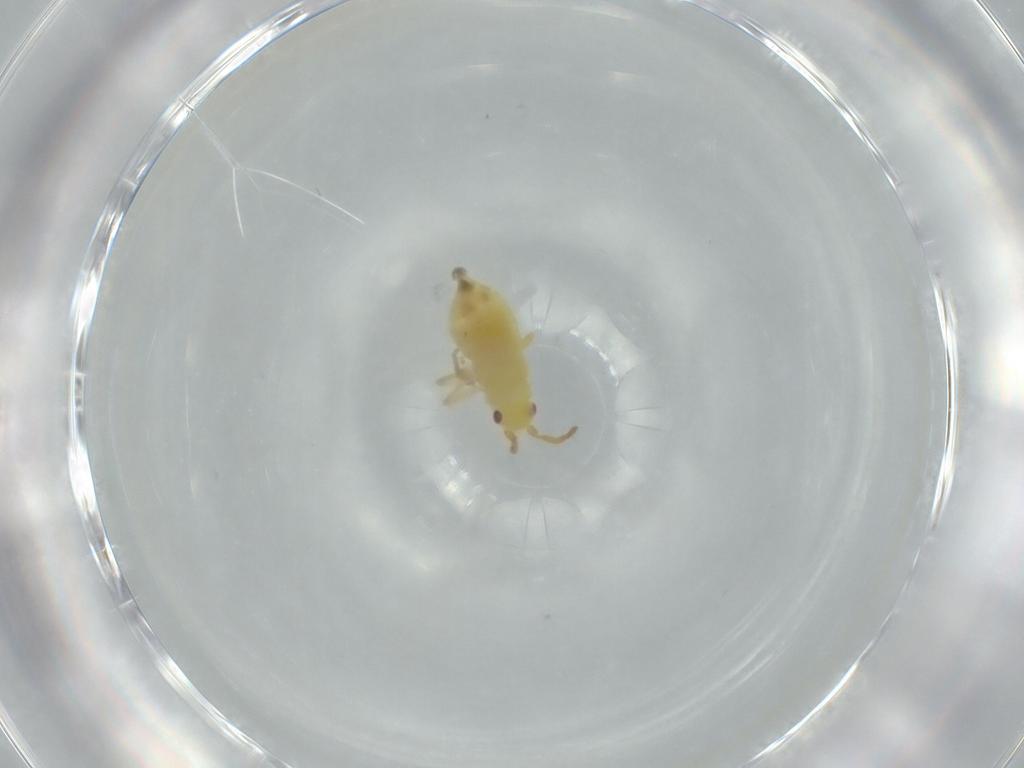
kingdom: Animalia
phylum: Arthropoda
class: Insecta
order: Hymenoptera
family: Aphelinidae
